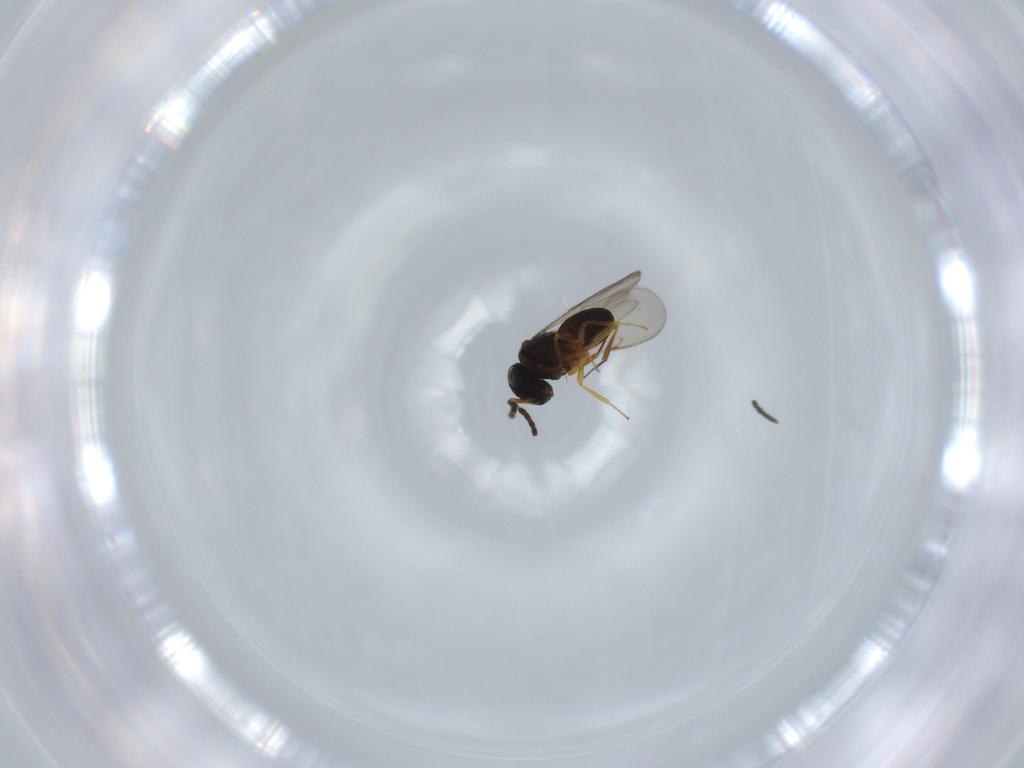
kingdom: Animalia
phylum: Arthropoda
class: Insecta
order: Hymenoptera
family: Scelionidae
